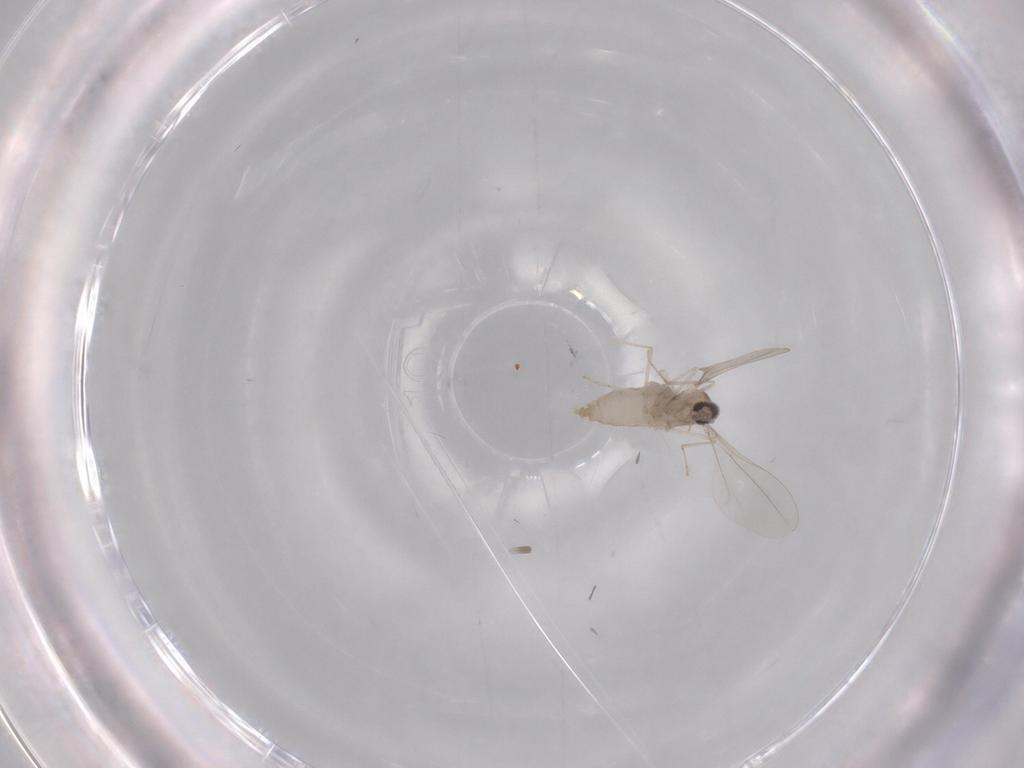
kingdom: Animalia
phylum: Arthropoda
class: Insecta
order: Diptera
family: Cecidomyiidae
